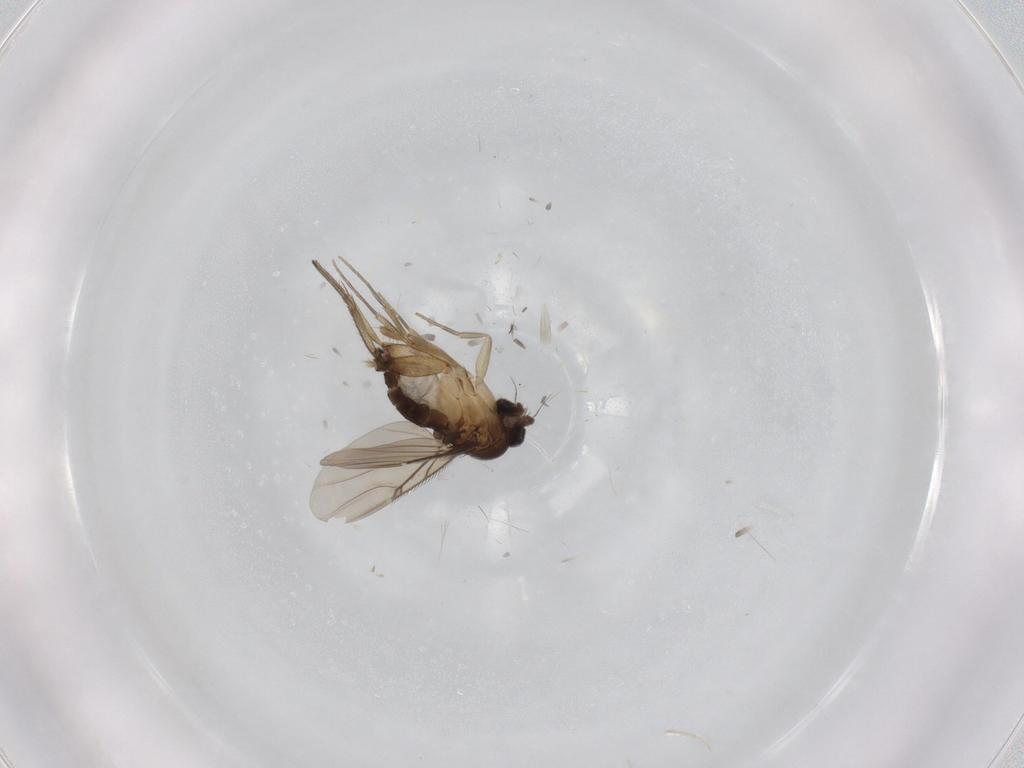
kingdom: Animalia
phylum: Arthropoda
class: Insecta
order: Diptera
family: Phoridae
